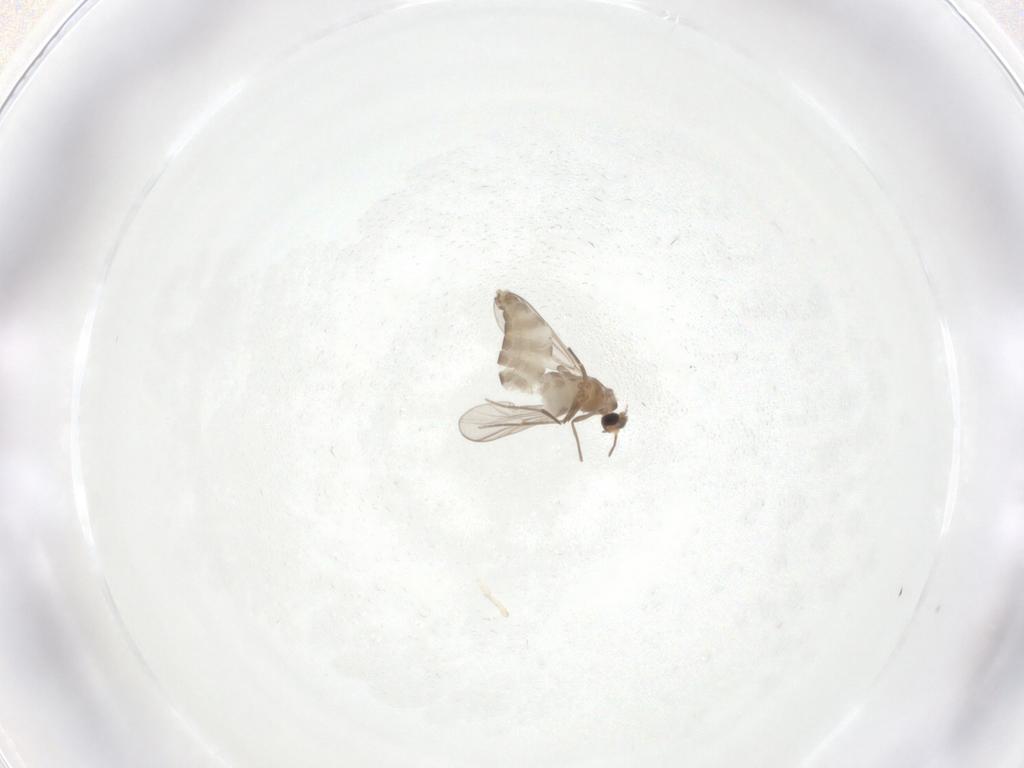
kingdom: Animalia
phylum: Arthropoda
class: Insecta
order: Diptera
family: Chironomidae
